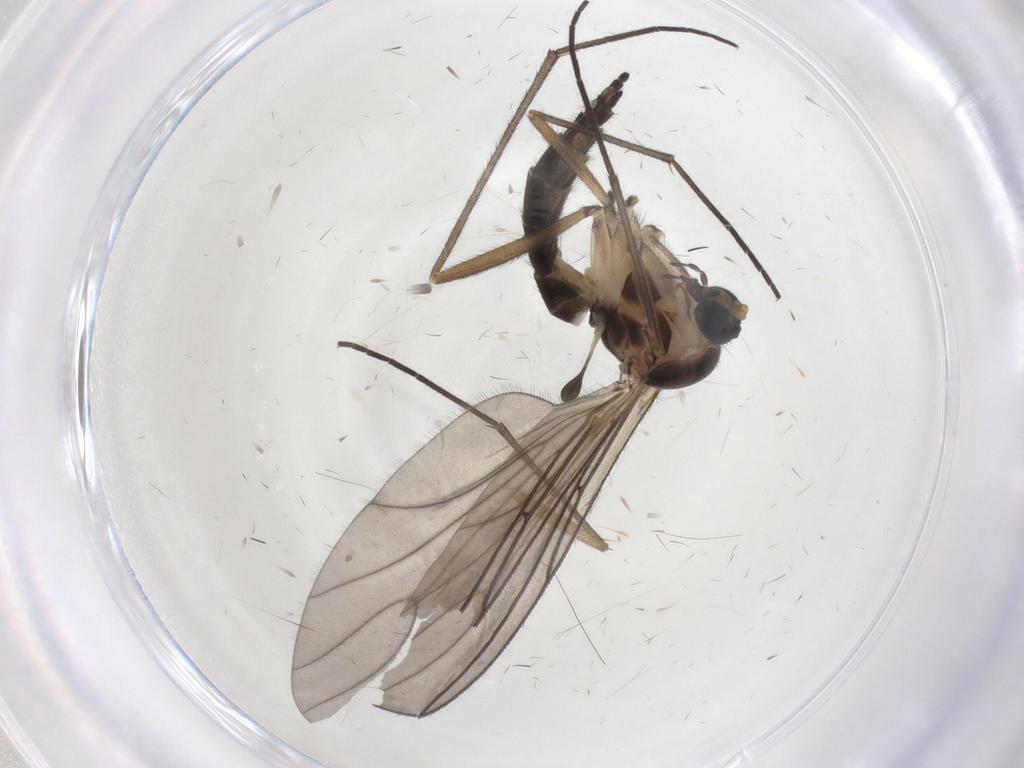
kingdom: Animalia
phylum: Arthropoda
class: Insecta
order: Diptera
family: Sciaridae
